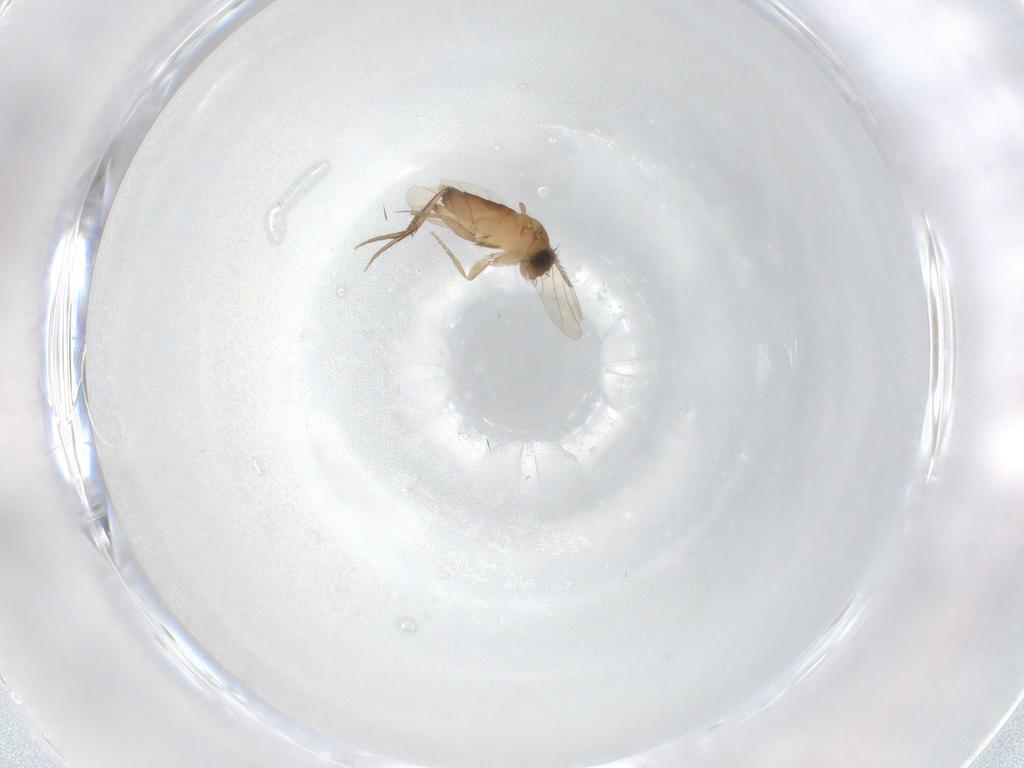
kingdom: Animalia
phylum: Arthropoda
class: Insecta
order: Diptera
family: Phoridae
